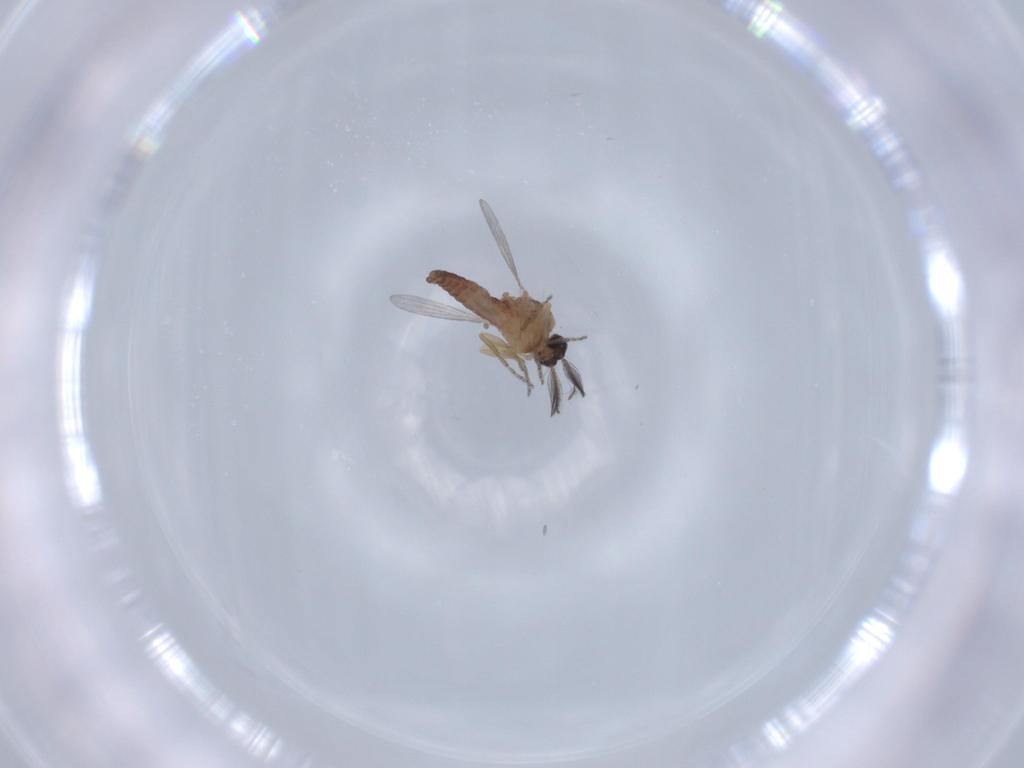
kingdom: Animalia
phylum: Arthropoda
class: Insecta
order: Diptera
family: Ceratopogonidae
